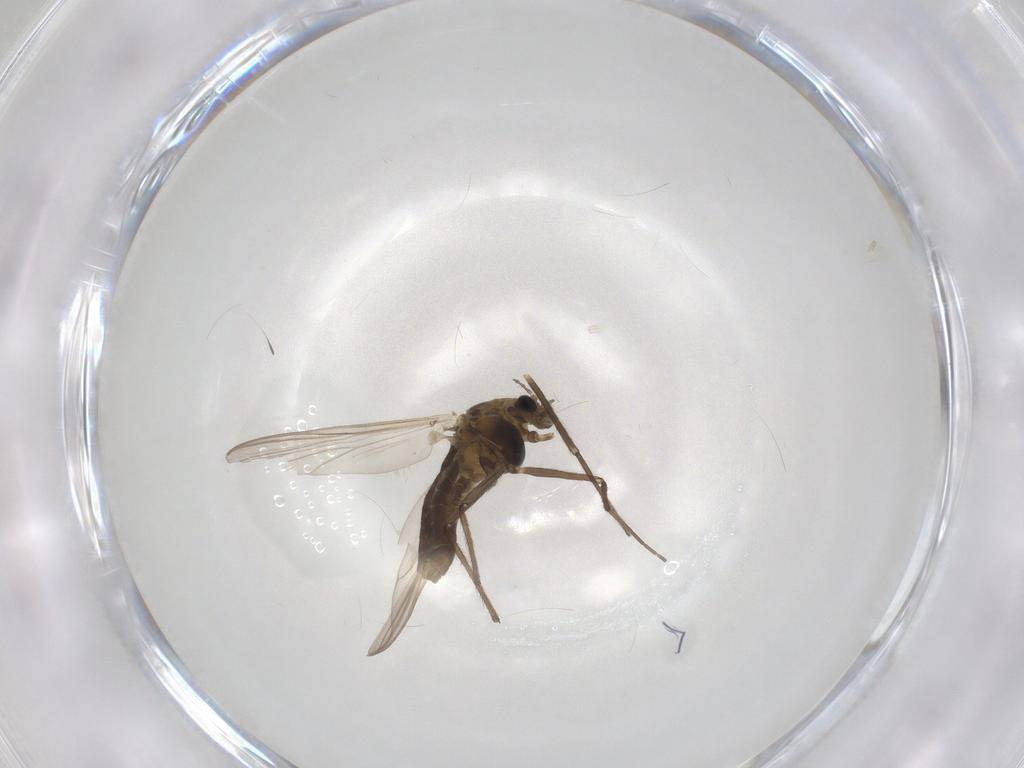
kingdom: Animalia
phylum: Arthropoda
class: Insecta
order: Diptera
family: Chironomidae
